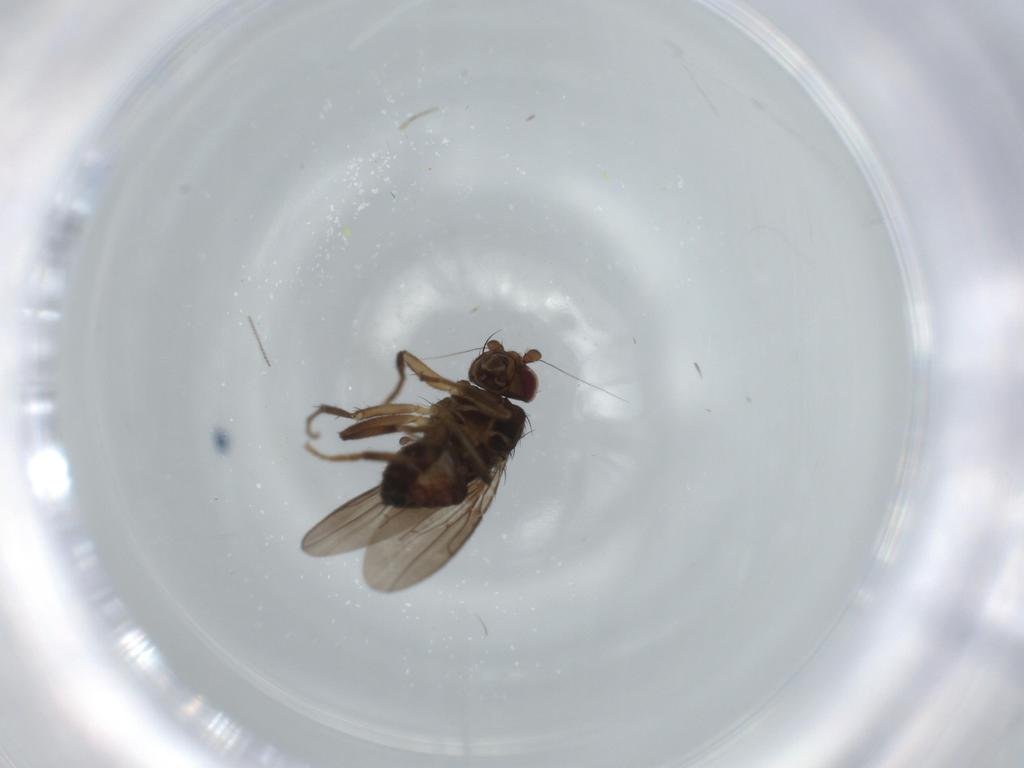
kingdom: Animalia
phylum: Arthropoda
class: Insecta
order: Diptera
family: Sphaeroceridae
